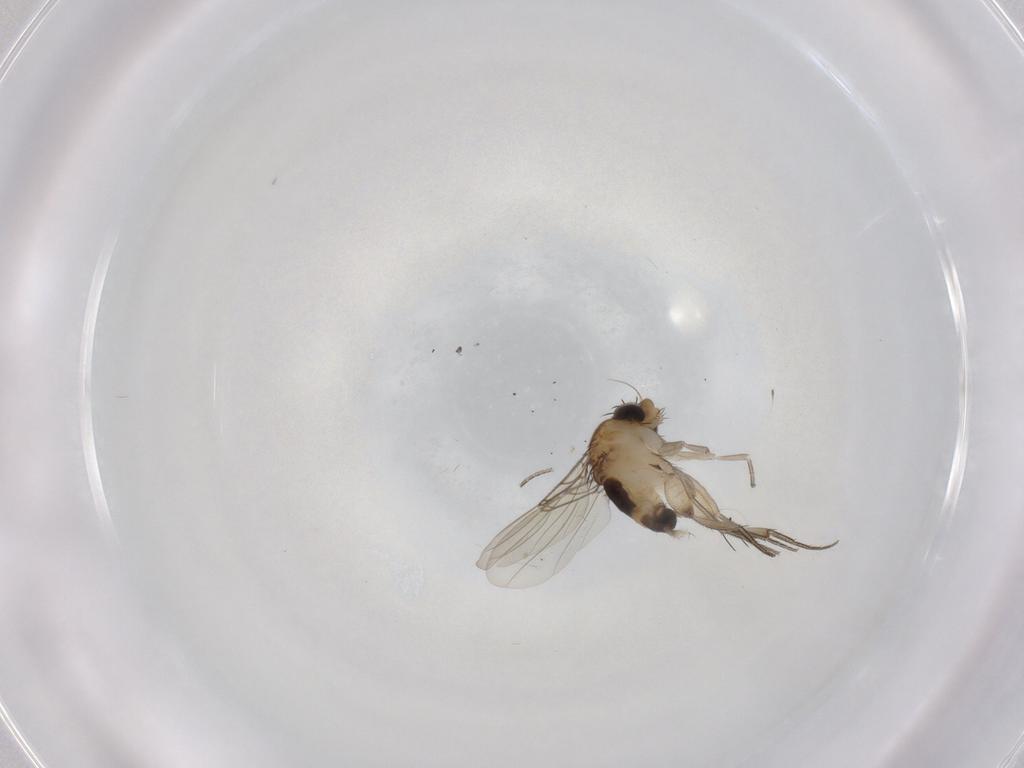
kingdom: Animalia
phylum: Arthropoda
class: Insecta
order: Diptera
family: Phoridae
